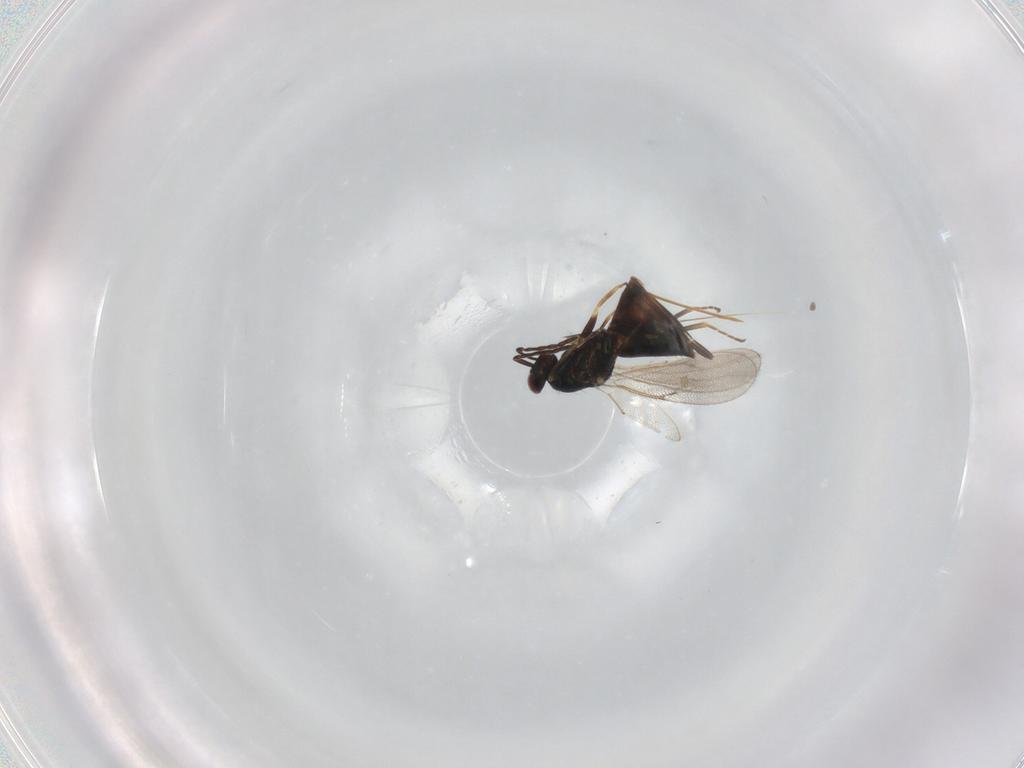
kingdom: Animalia
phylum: Arthropoda
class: Insecta
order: Hymenoptera
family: Eulophidae
